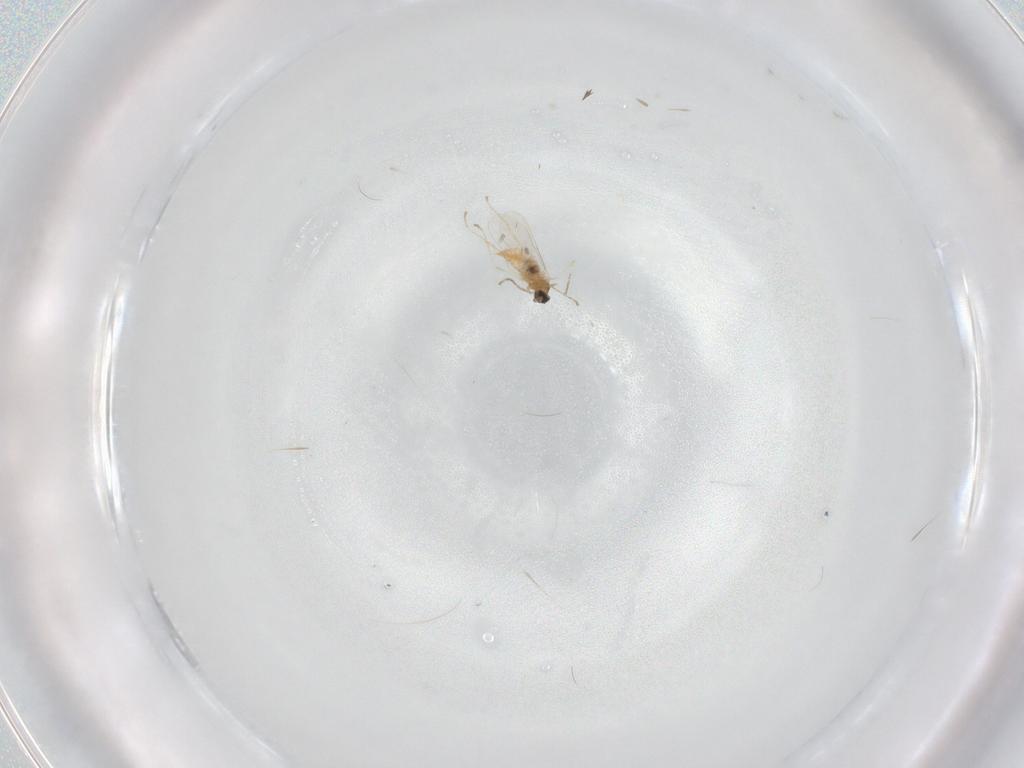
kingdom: Animalia
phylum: Arthropoda
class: Insecta
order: Diptera
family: Cecidomyiidae
